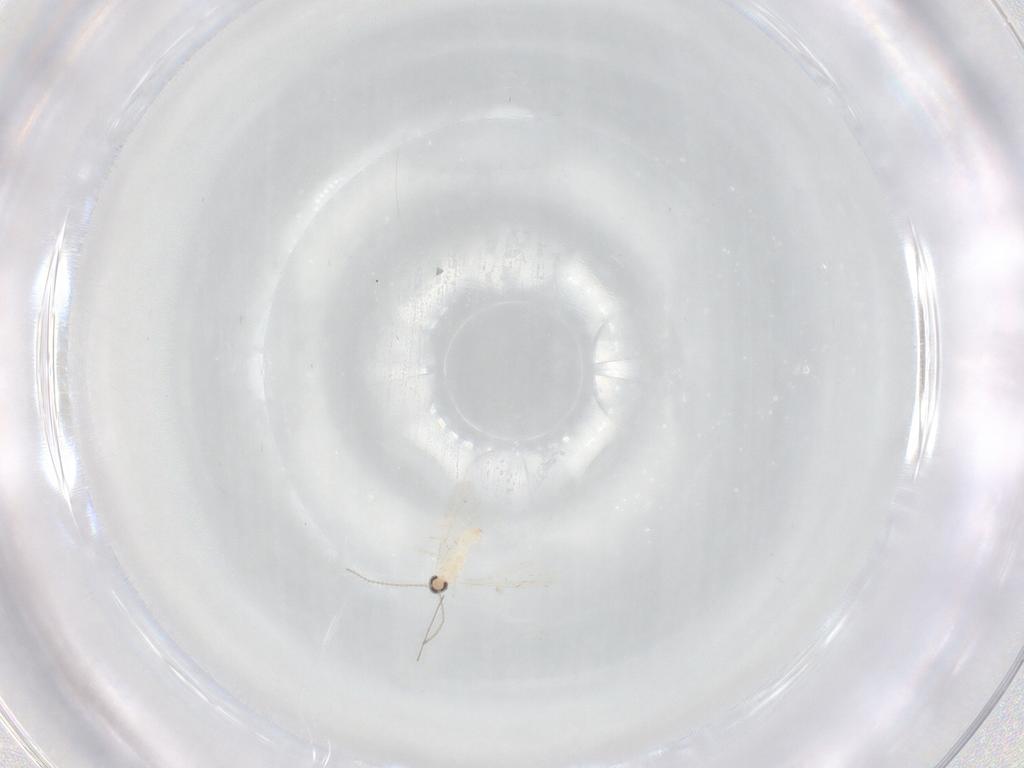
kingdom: Animalia
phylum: Arthropoda
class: Insecta
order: Diptera
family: Cecidomyiidae
